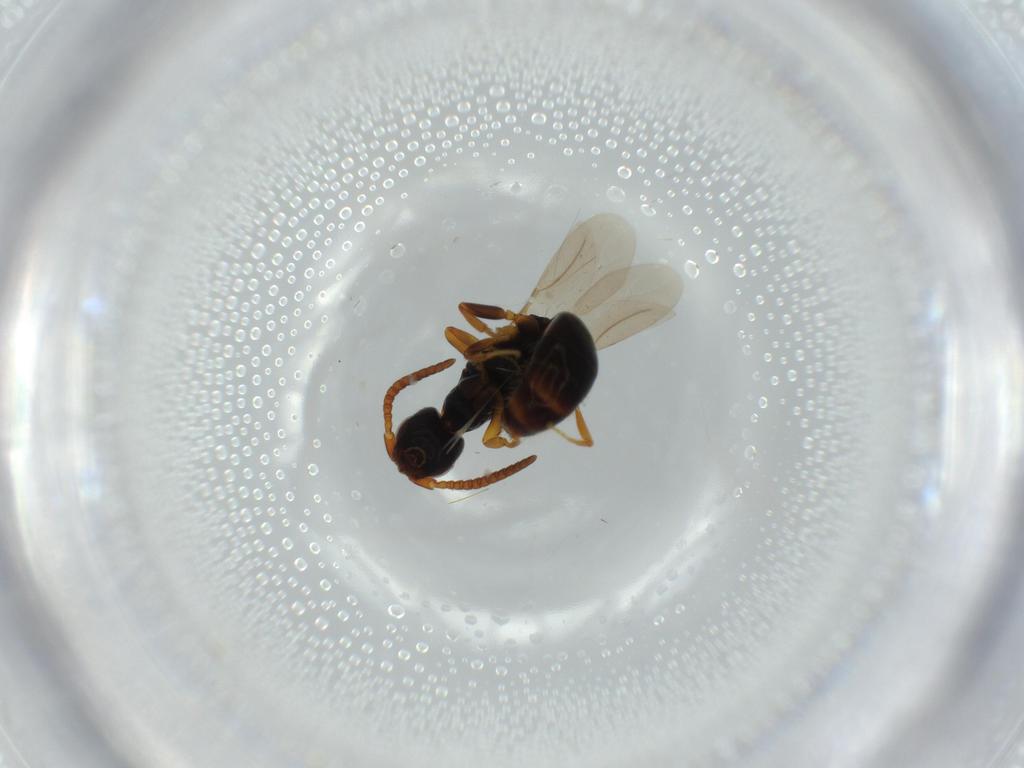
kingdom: Animalia
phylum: Arthropoda
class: Insecta
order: Hymenoptera
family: Bethylidae
